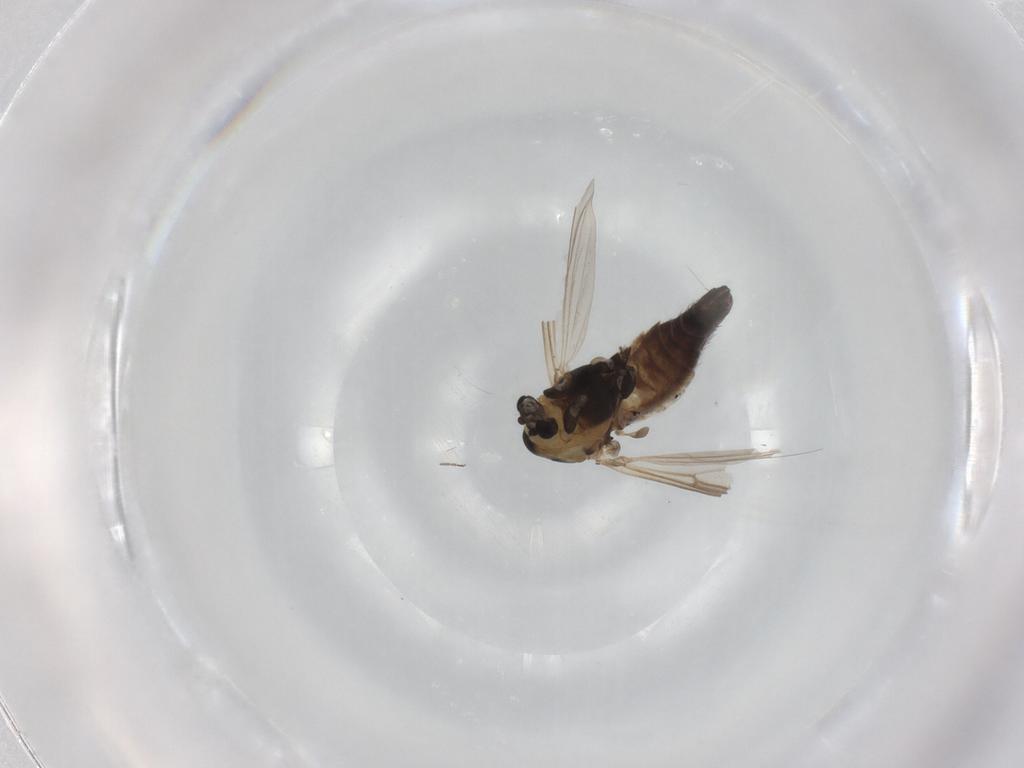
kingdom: Animalia
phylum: Arthropoda
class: Insecta
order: Diptera
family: Chironomidae
